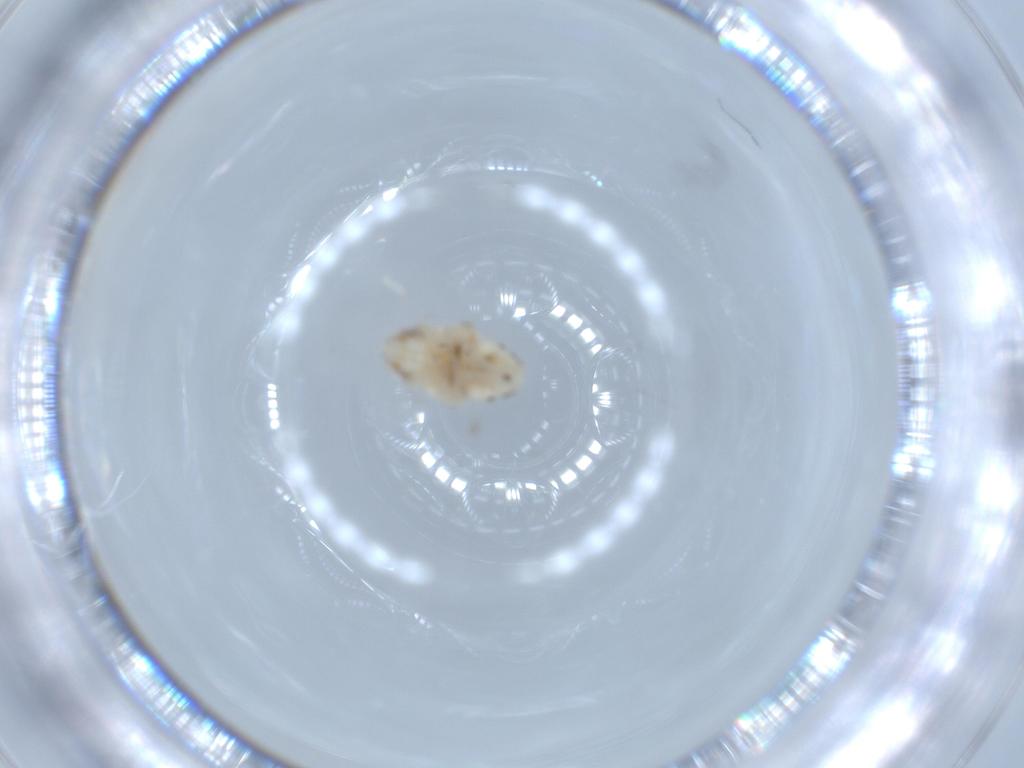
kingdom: Animalia
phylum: Arthropoda
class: Insecta
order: Hemiptera
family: Nogodinidae
